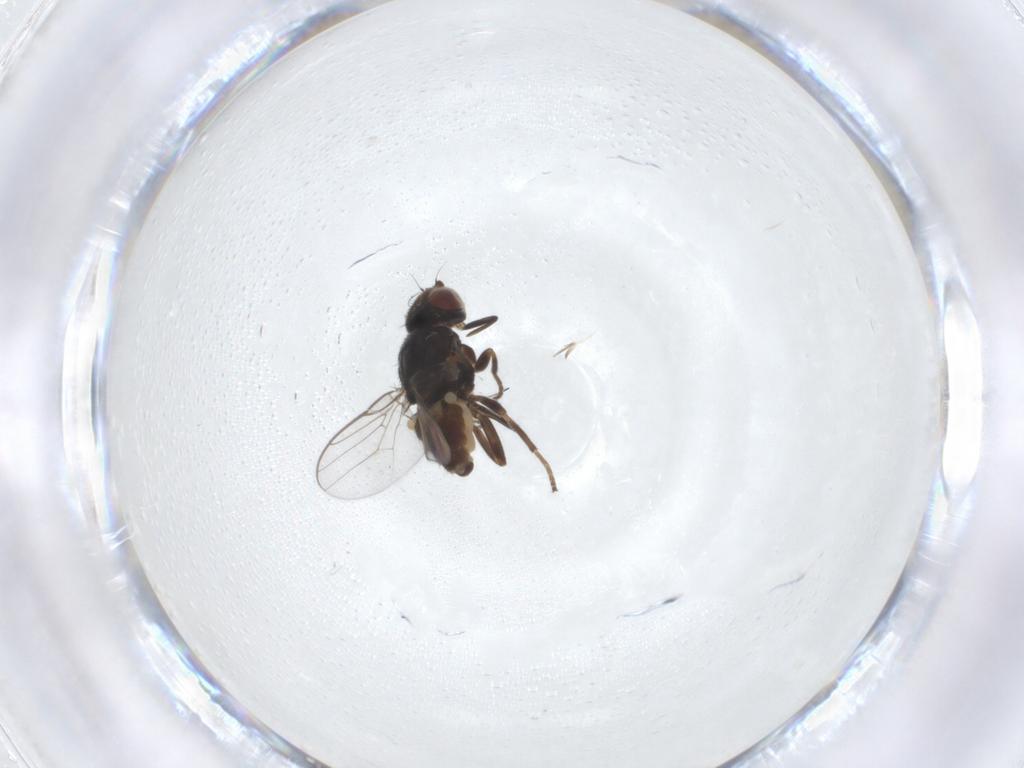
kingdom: Animalia
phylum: Arthropoda
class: Insecta
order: Diptera
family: Chloropidae
